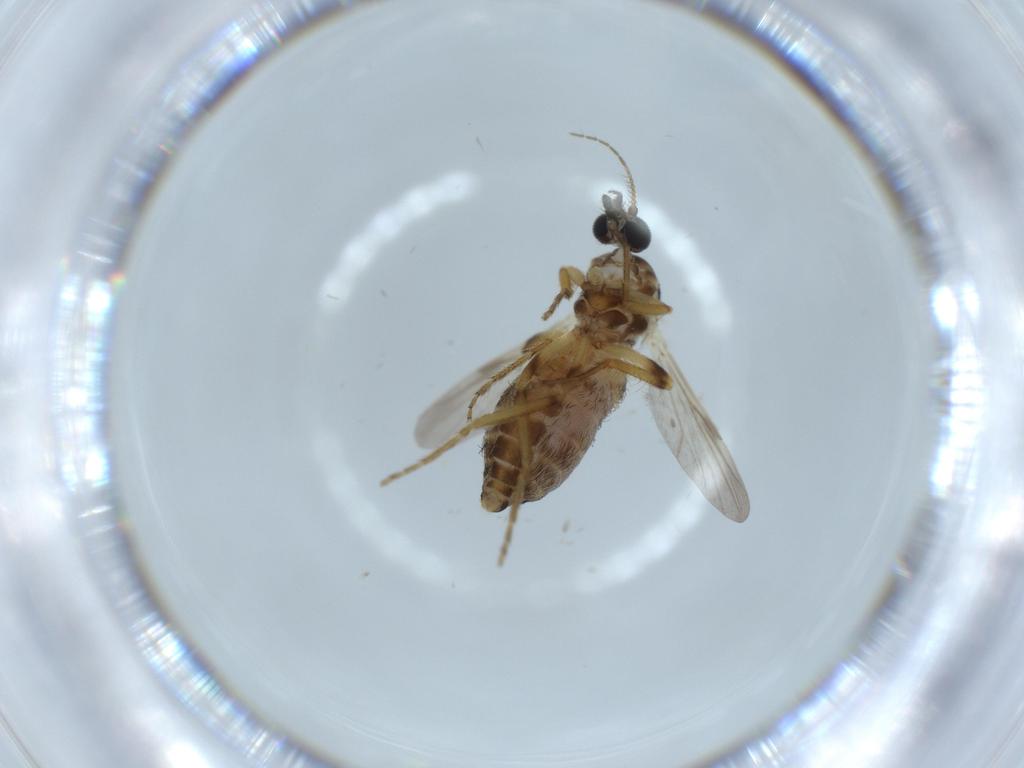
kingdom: Animalia
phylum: Arthropoda
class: Insecta
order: Diptera
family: Ceratopogonidae
